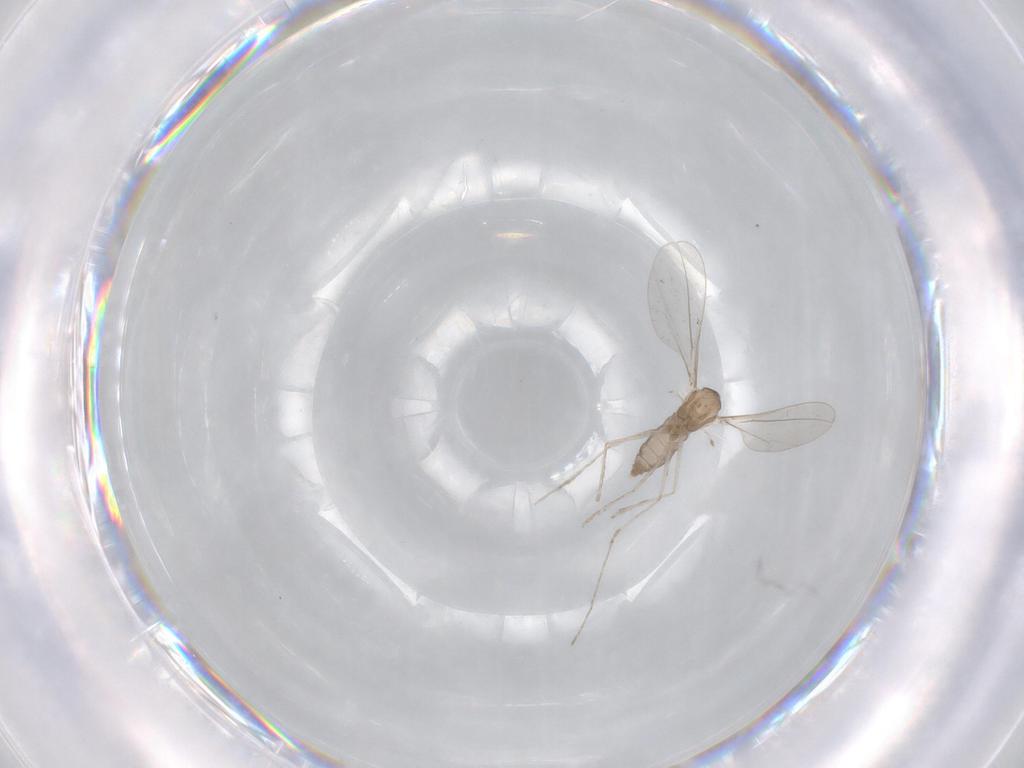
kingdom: Animalia
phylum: Arthropoda
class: Insecta
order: Diptera
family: Cecidomyiidae
